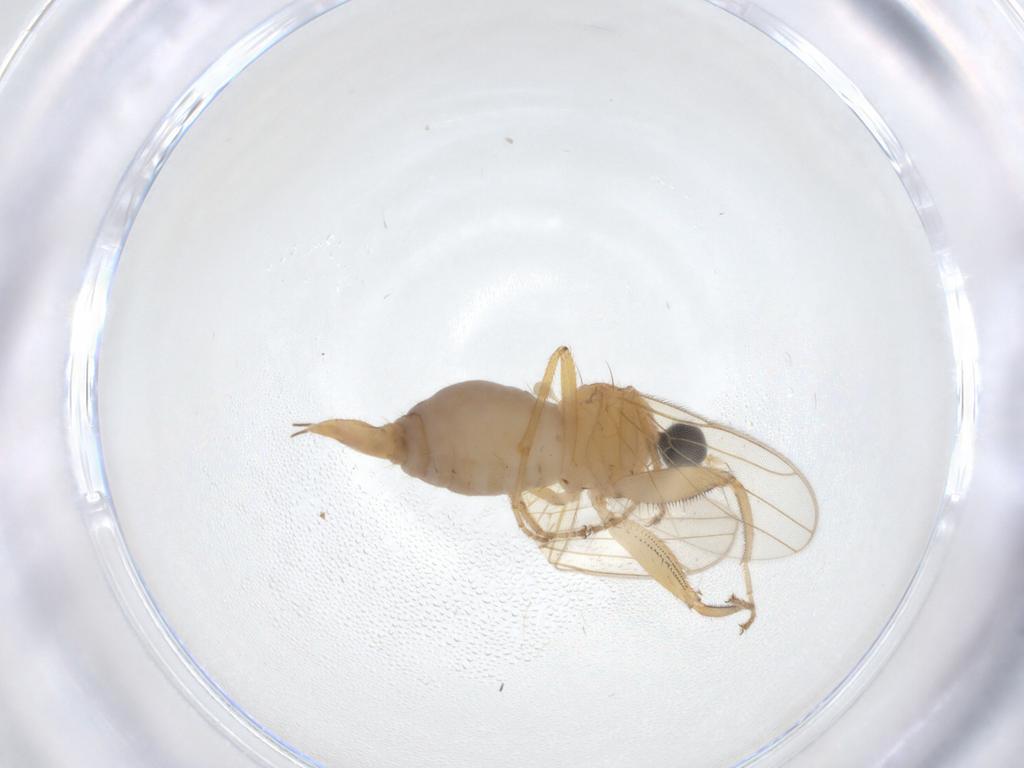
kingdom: Animalia
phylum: Arthropoda
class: Insecta
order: Diptera
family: Hybotidae
